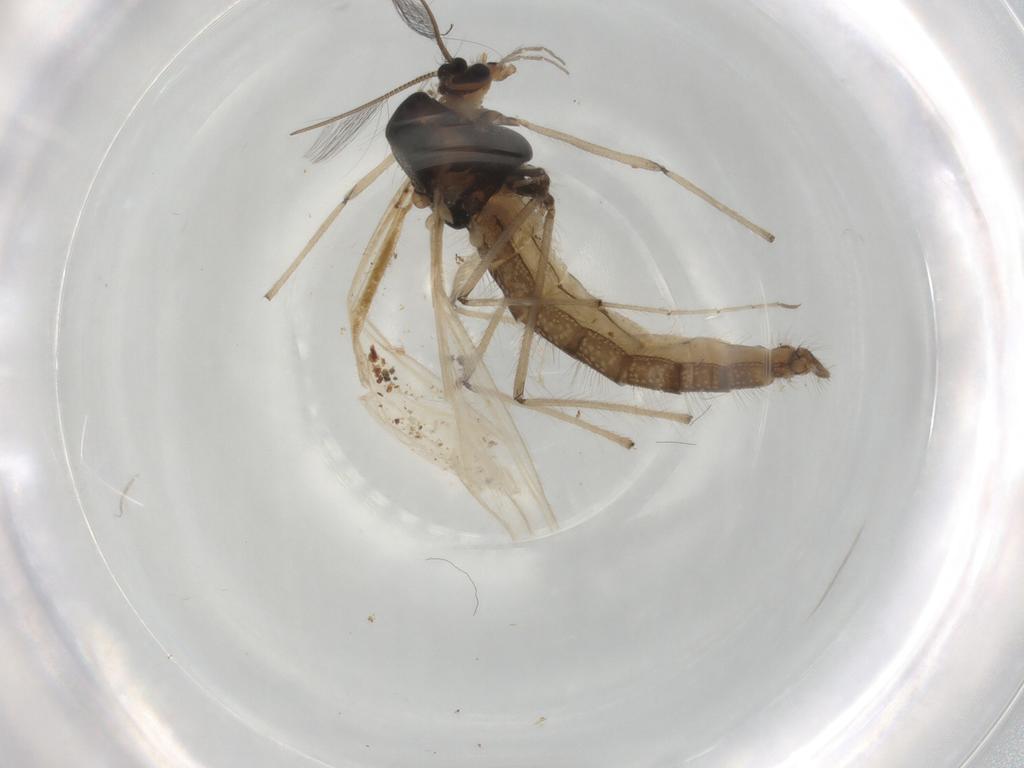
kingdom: Animalia
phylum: Arthropoda
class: Insecta
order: Diptera
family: Chironomidae
